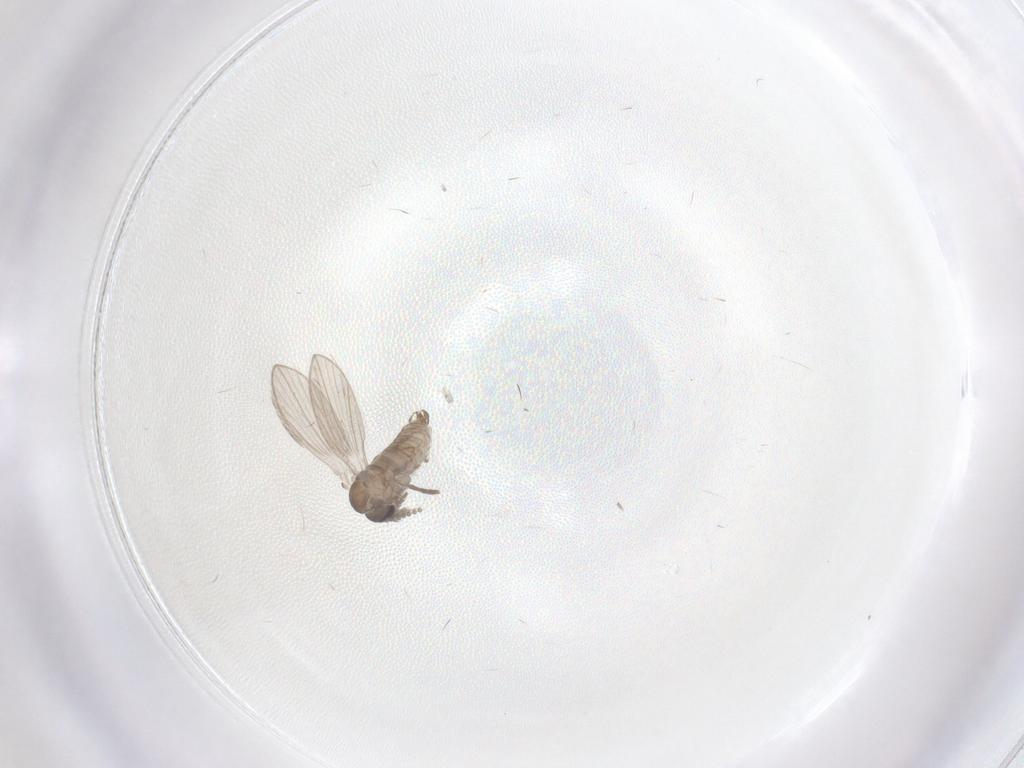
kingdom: Animalia
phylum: Arthropoda
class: Insecta
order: Diptera
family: Psychodidae
